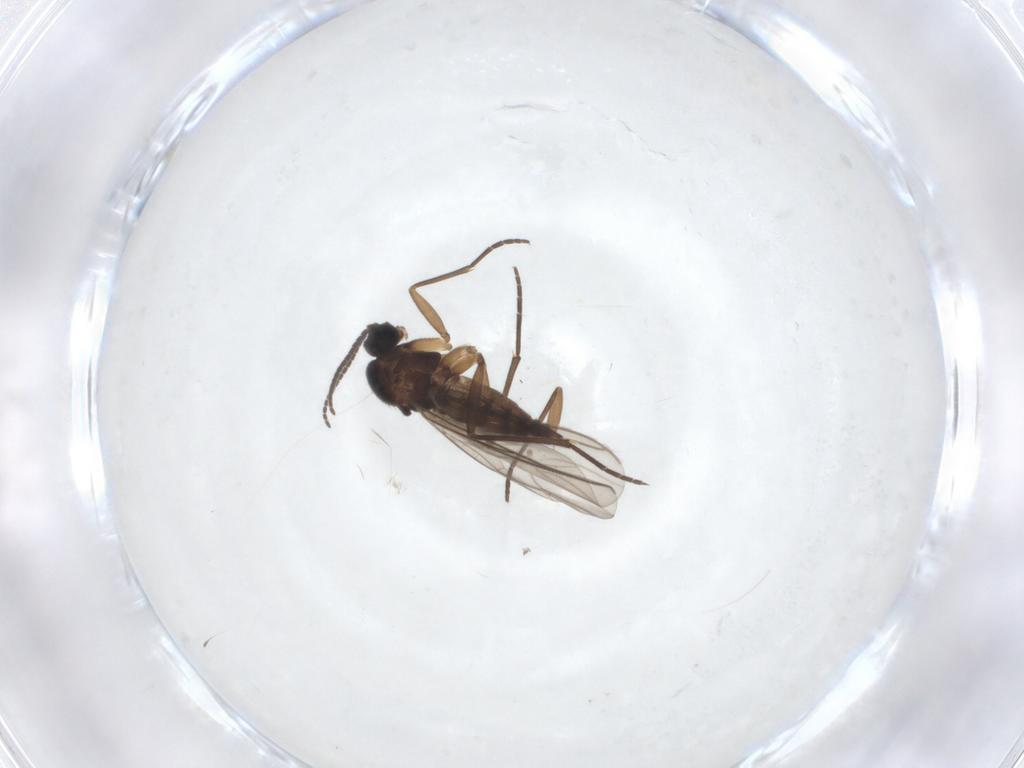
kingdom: Animalia
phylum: Arthropoda
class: Insecta
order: Diptera
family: Sciaridae
